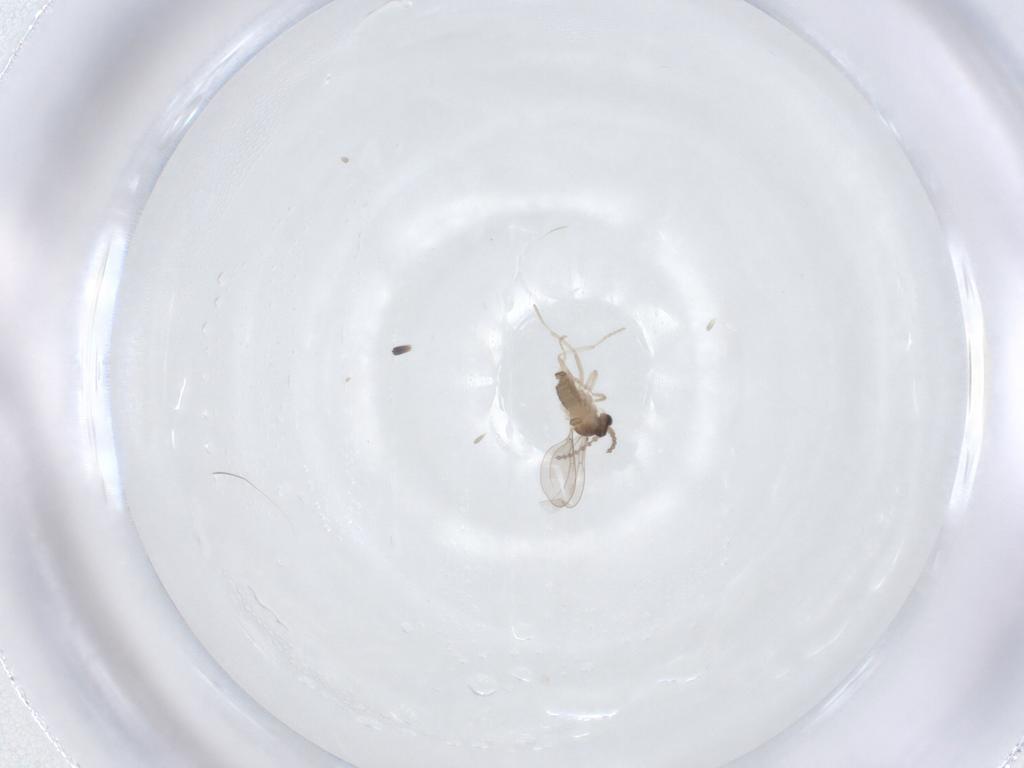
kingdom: Animalia
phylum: Arthropoda
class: Insecta
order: Diptera
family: Cecidomyiidae
